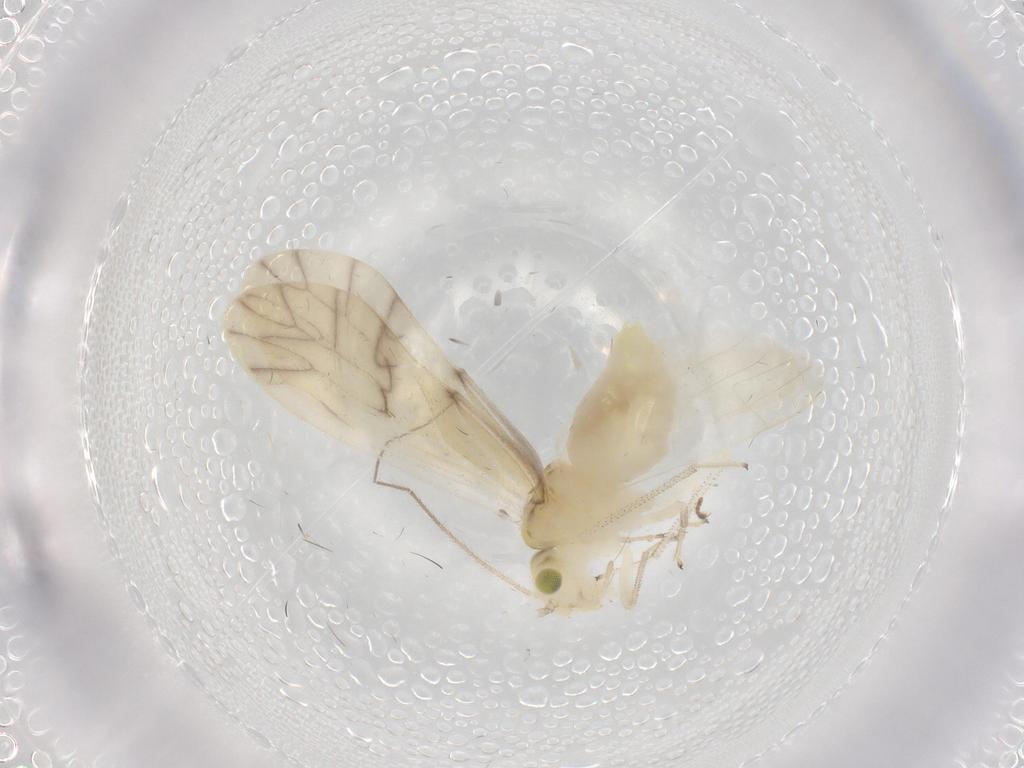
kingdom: Animalia
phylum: Arthropoda
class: Insecta
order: Psocodea
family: Caeciliusidae
